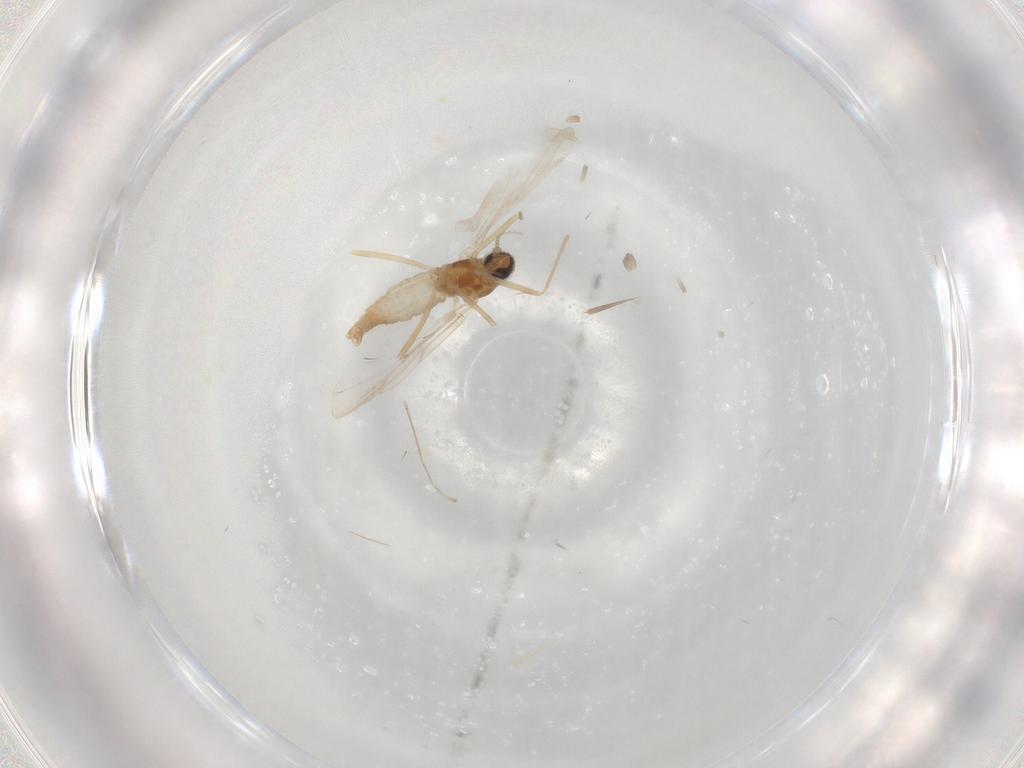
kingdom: Animalia
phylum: Arthropoda
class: Insecta
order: Diptera
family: Cecidomyiidae
